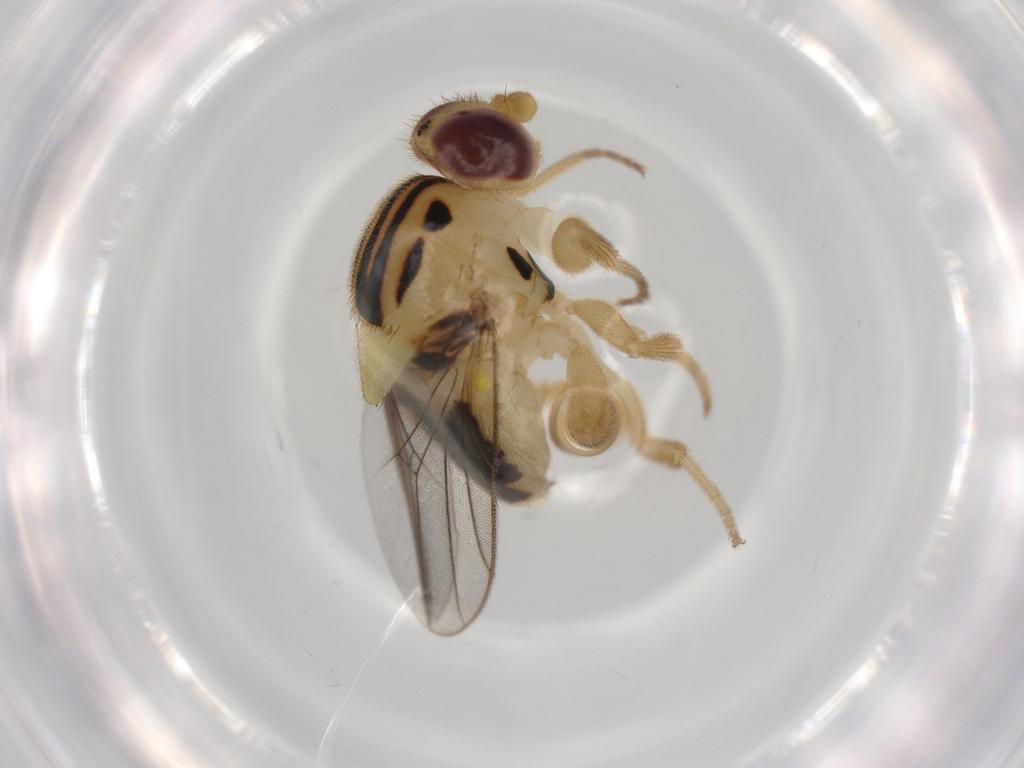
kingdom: Animalia
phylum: Arthropoda
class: Insecta
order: Diptera
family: Chloropidae
